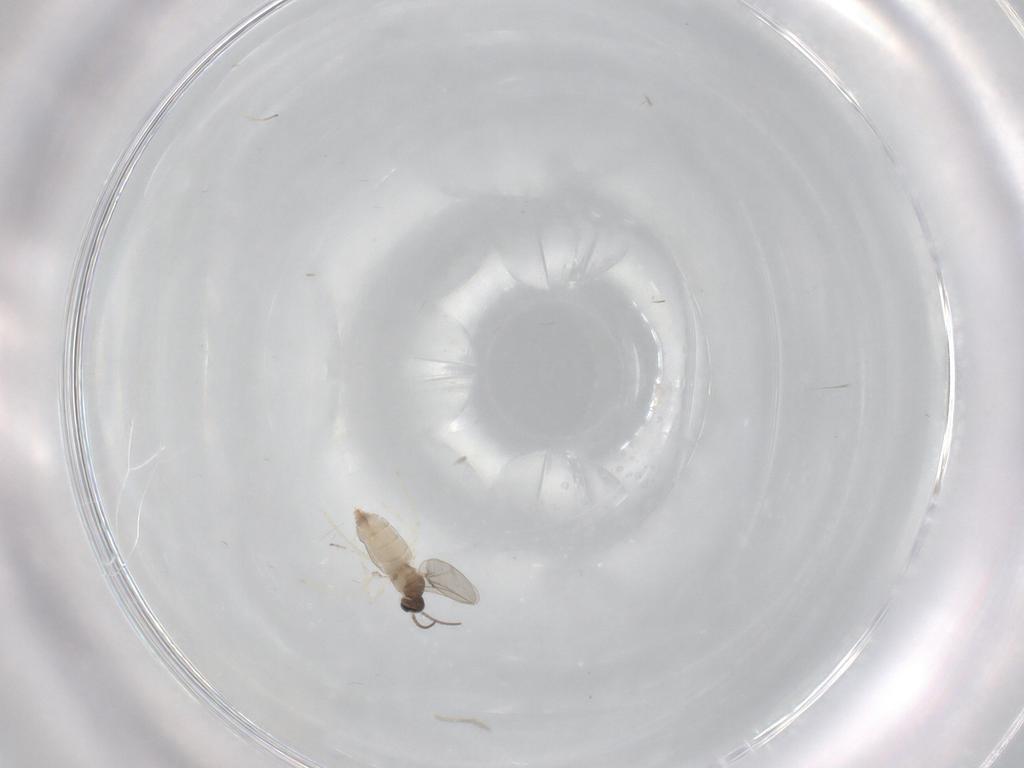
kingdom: Animalia
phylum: Arthropoda
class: Insecta
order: Diptera
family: Cecidomyiidae
